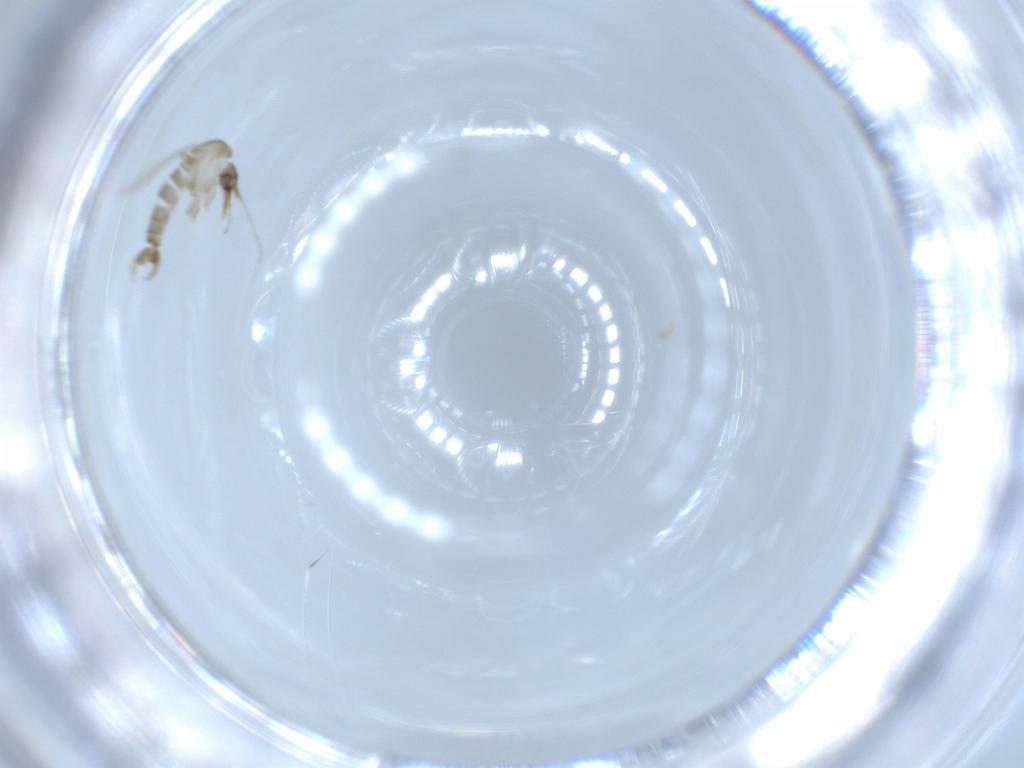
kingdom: Animalia
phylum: Arthropoda
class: Insecta
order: Diptera
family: Psychodidae
